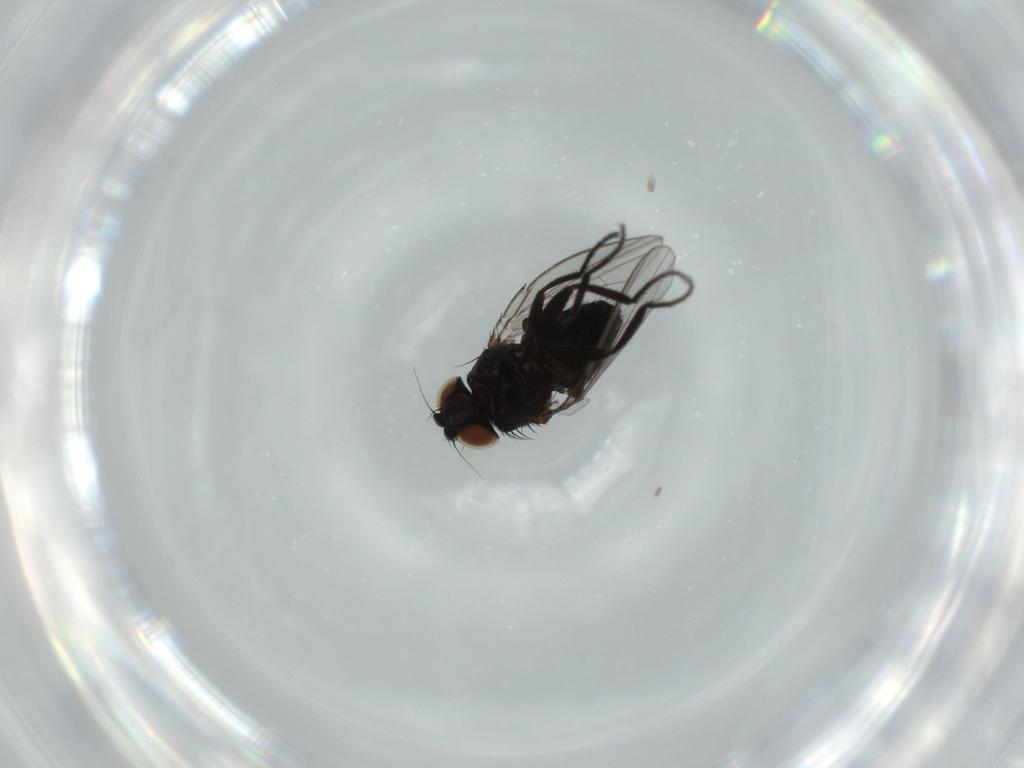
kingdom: Animalia
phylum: Arthropoda
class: Insecta
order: Diptera
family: Milichiidae
